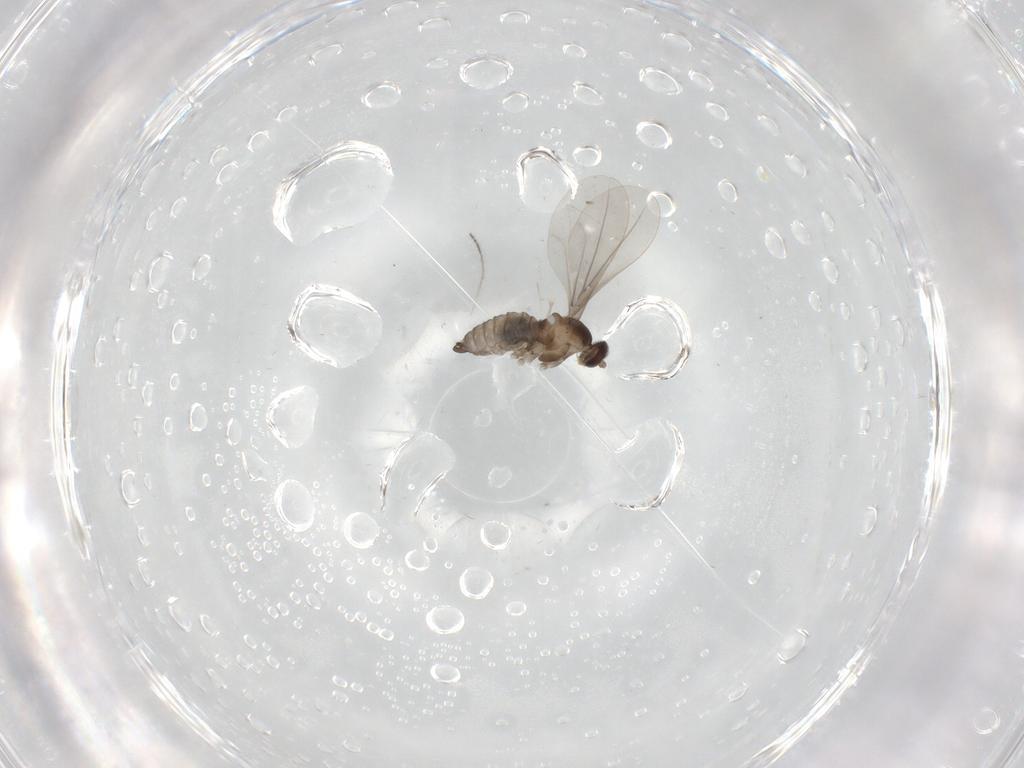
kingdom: Animalia
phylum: Arthropoda
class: Insecta
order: Diptera
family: Cecidomyiidae
